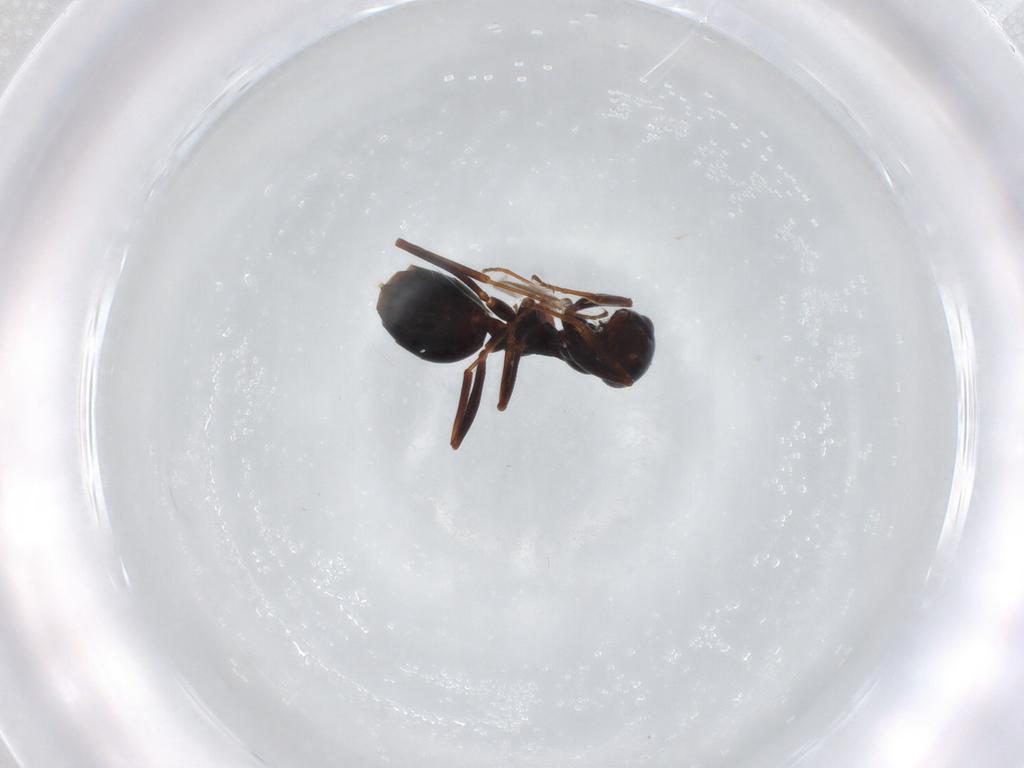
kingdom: Animalia
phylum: Arthropoda
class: Insecta
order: Hymenoptera
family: Formicidae
